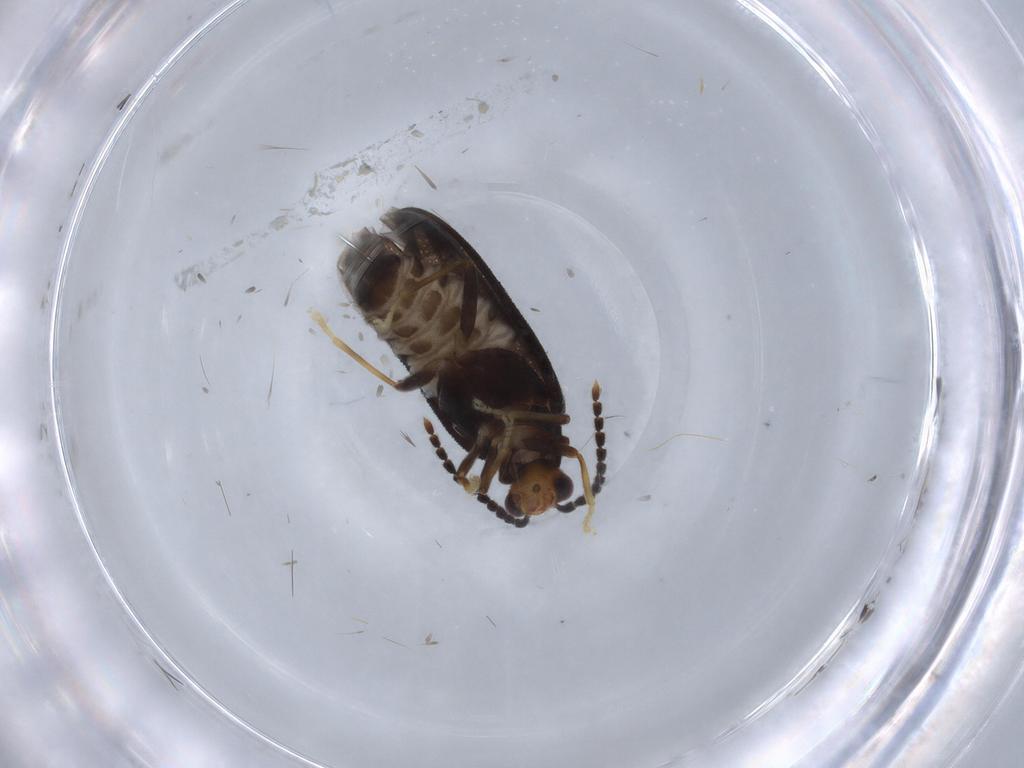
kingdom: Animalia
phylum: Arthropoda
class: Insecta
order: Coleoptera
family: Cantharidae
